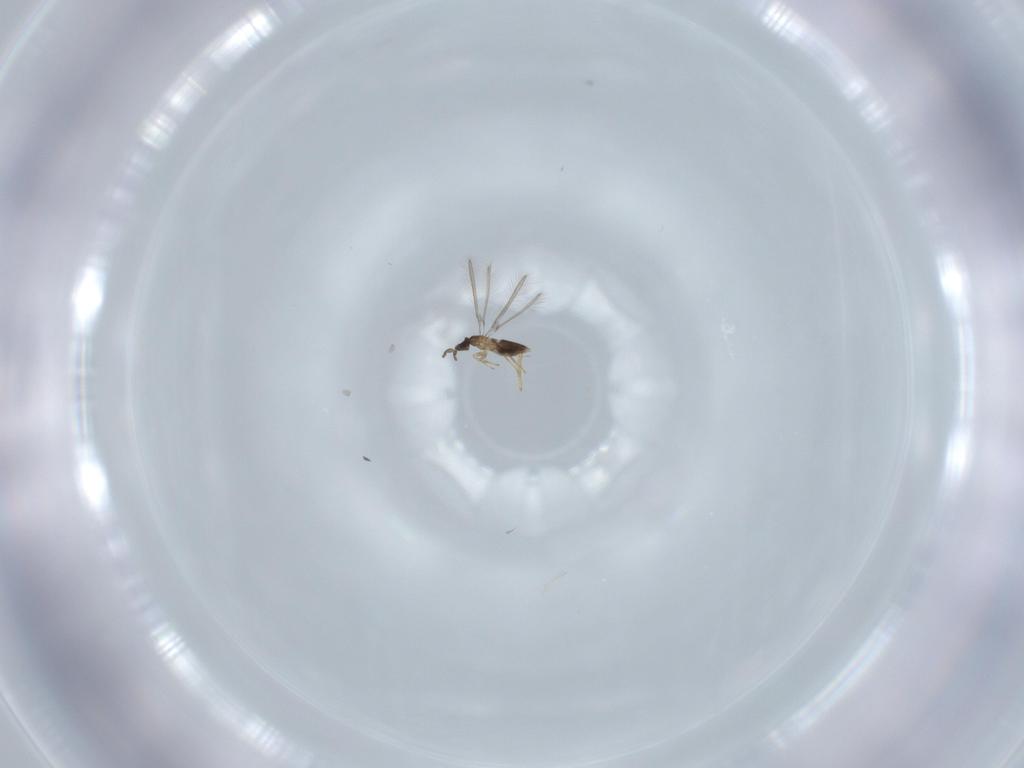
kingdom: Animalia
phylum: Arthropoda
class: Insecta
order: Hymenoptera
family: Mymaridae
